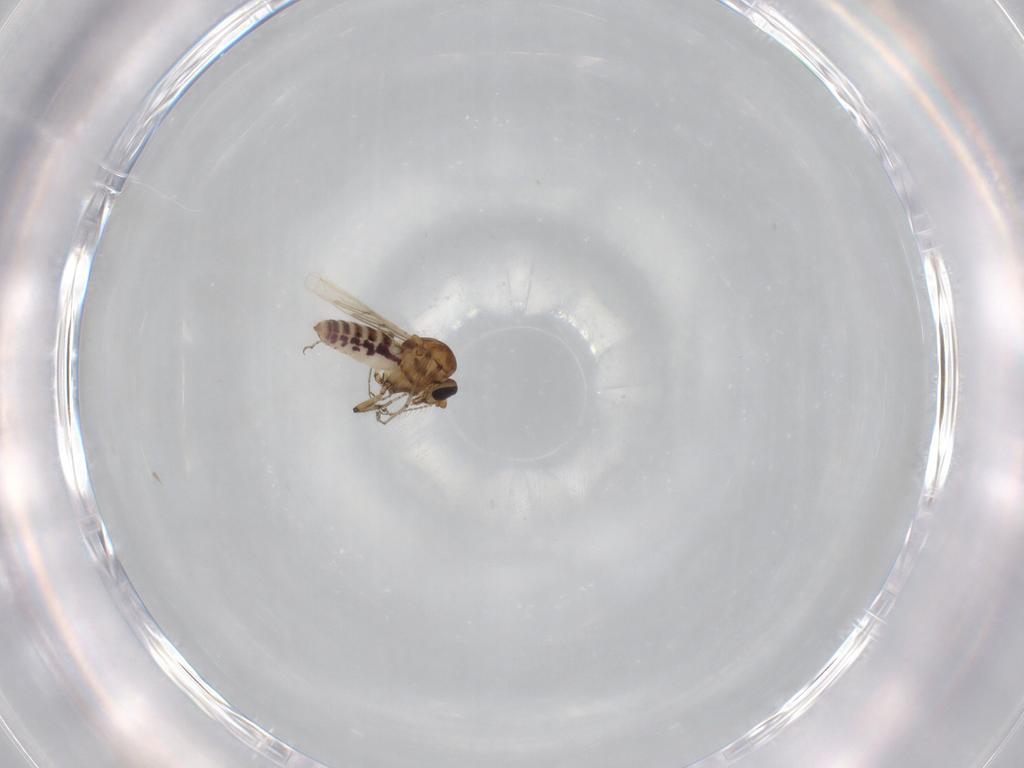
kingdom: Animalia
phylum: Arthropoda
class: Insecta
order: Diptera
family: Ceratopogonidae
